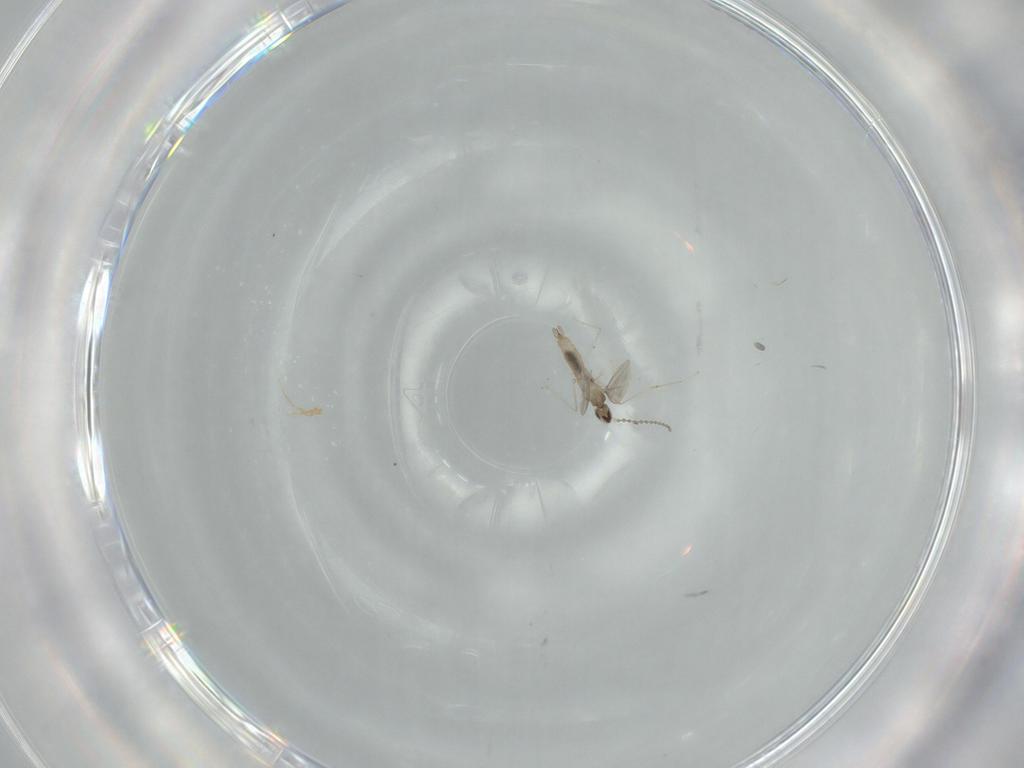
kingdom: Animalia
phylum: Arthropoda
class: Insecta
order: Diptera
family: Cecidomyiidae
